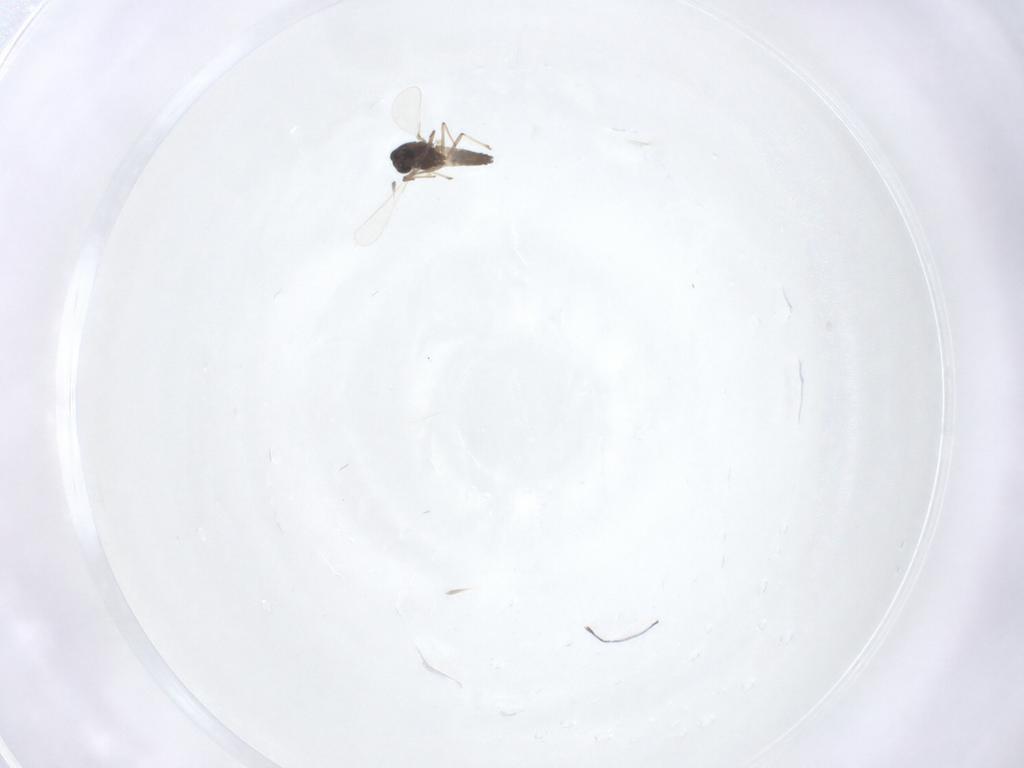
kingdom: Animalia
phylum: Arthropoda
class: Insecta
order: Diptera
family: Chironomidae
